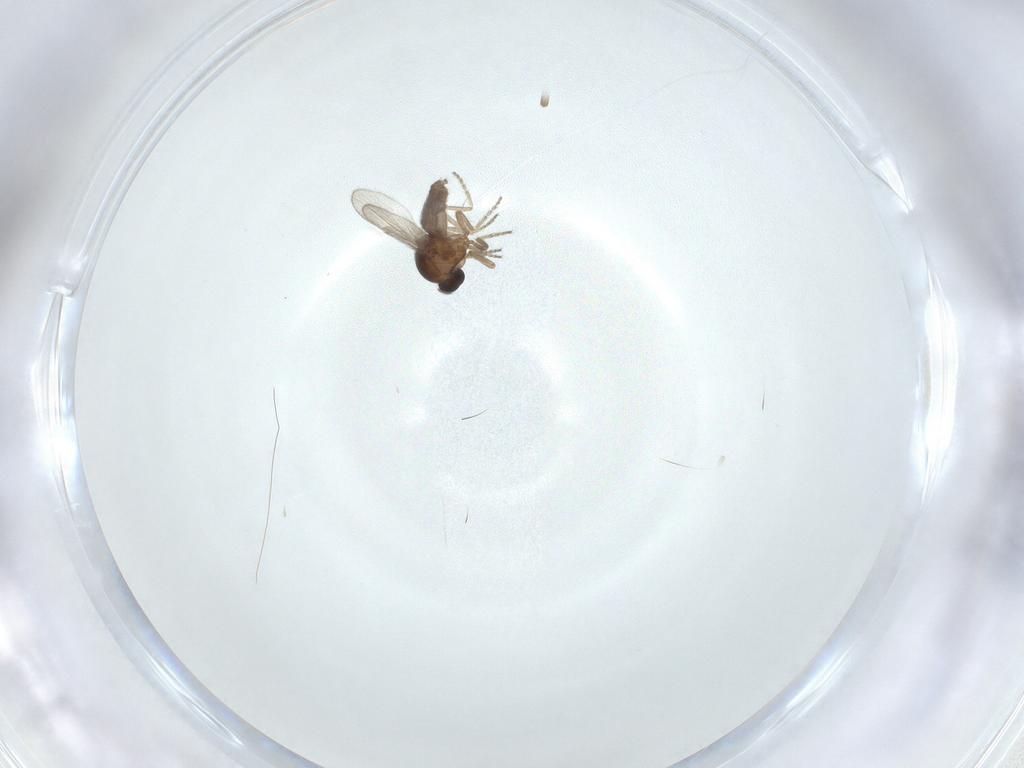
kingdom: Animalia
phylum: Arthropoda
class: Insecta
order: Diptera
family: Ceratopogonidae
